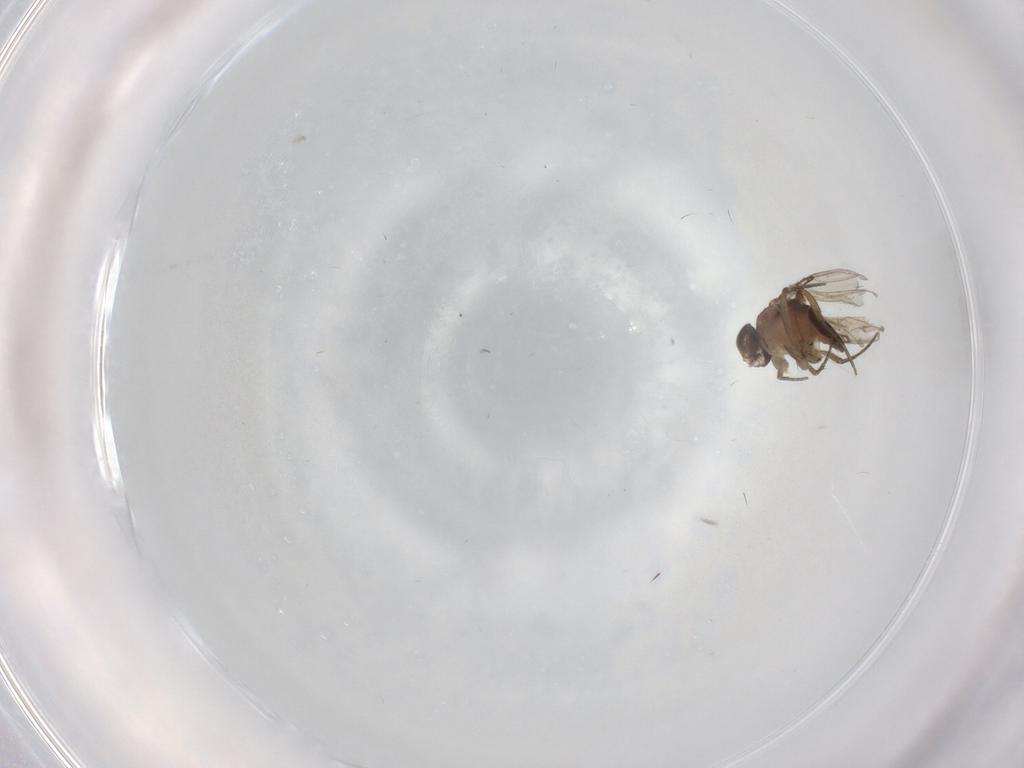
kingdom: Animalia
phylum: Arthropoda
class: Insecta
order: Diptera
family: Phoridae
